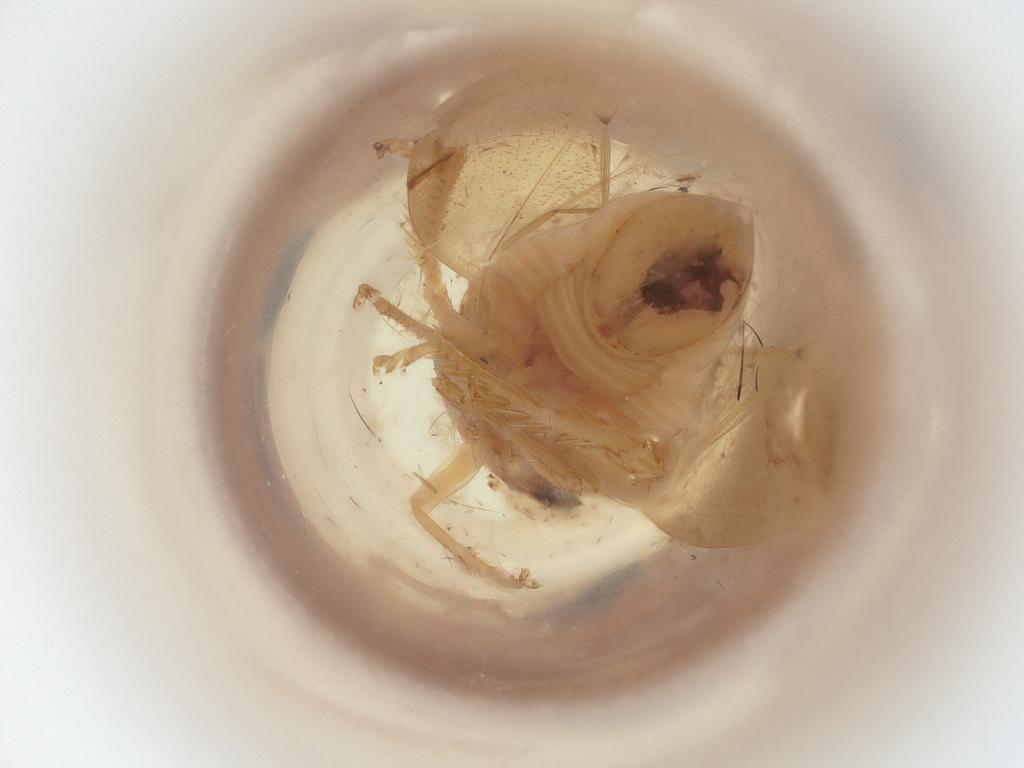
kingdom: Animalia
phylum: Arthropoda
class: Insecta
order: Hemiptera
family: Cicadellidae
